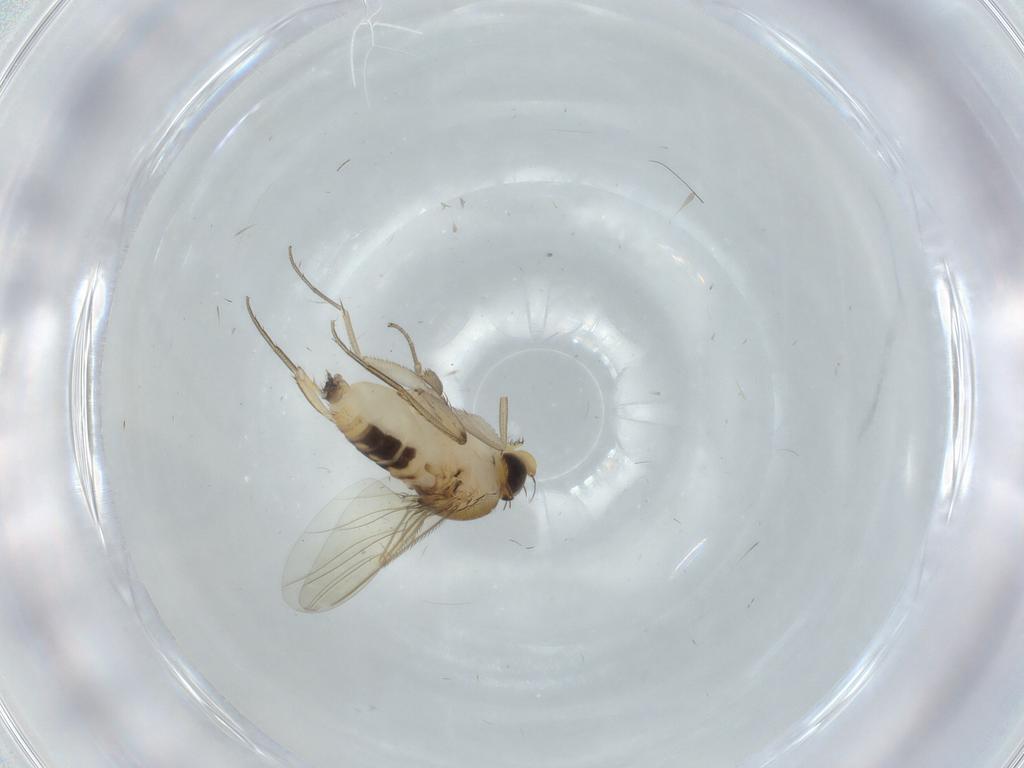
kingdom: Animalia
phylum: Arthropoda
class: Insecta
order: Diptera
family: Phoridae
